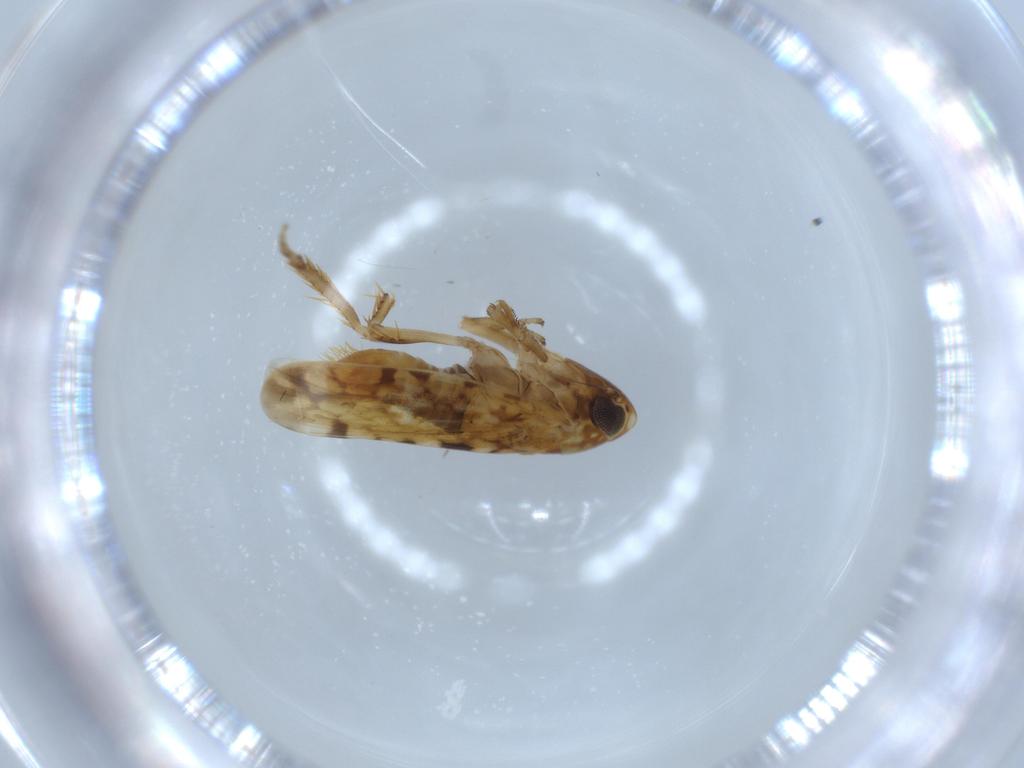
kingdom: Animalia
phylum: Arthropoda
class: Insecta
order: Hemiptera
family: Cicadellidae
